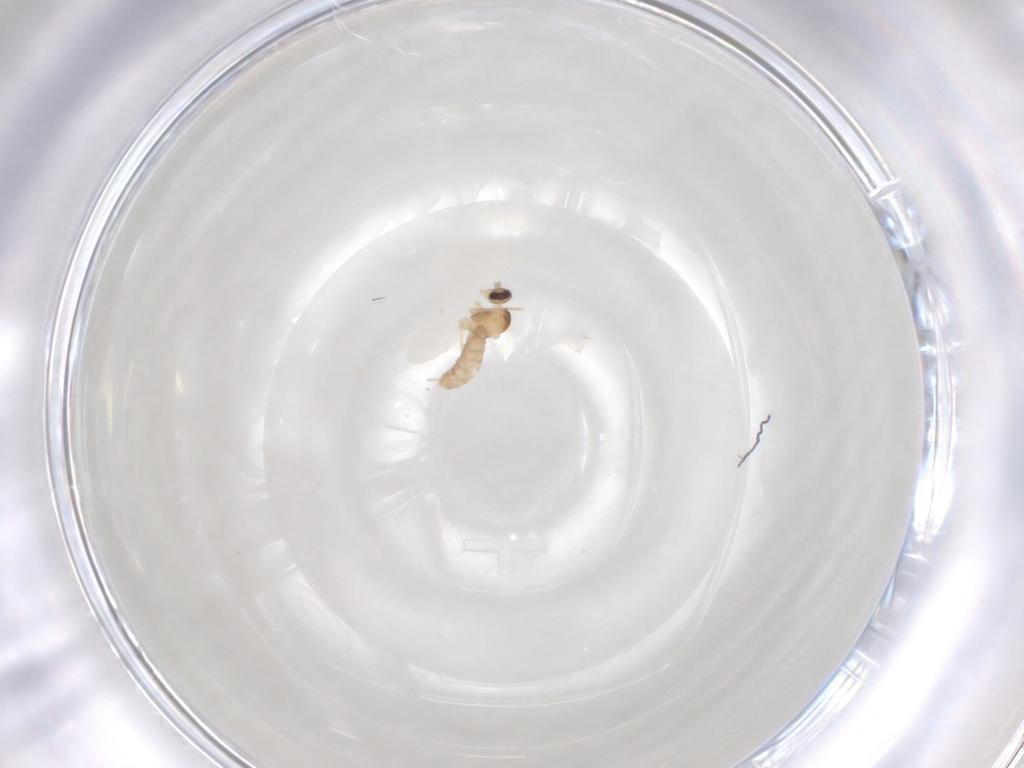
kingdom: Animalia
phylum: Arthropoda
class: Insecta
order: Diptera
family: Cecidomyiidae
